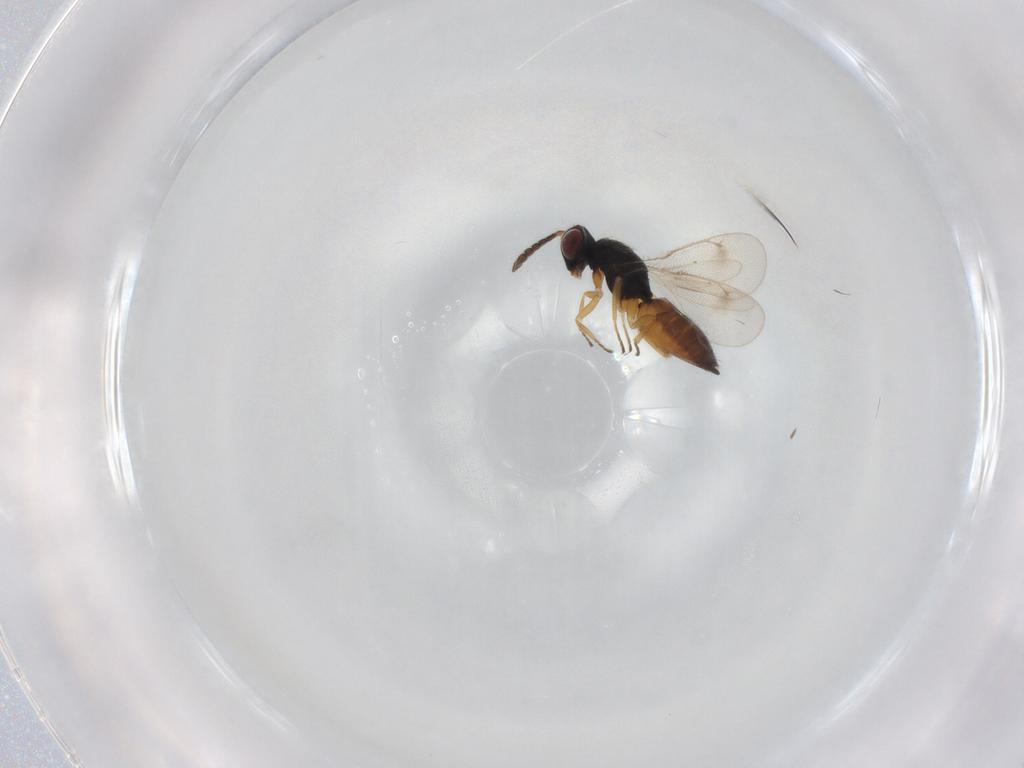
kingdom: Animalia
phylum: Arthropoda
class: Insecta
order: Hymenoptera
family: Eulophidae
